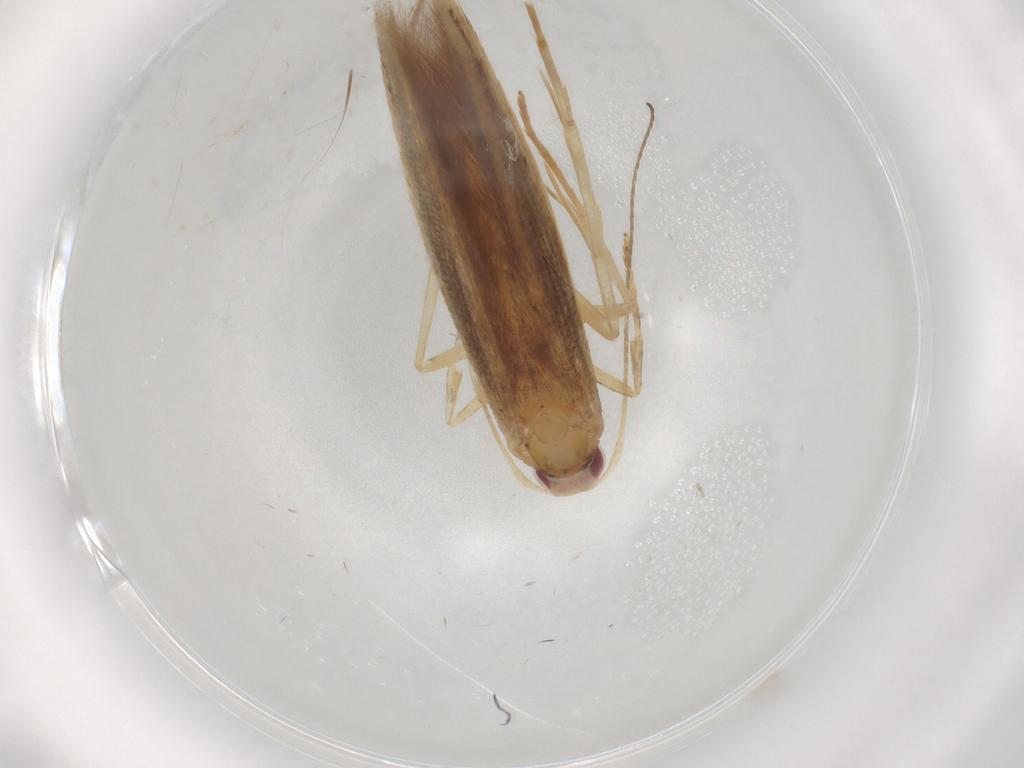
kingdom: Animalia
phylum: Arthropoda
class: Insecta
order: Lepidoptera
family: Cosmopterigidae
